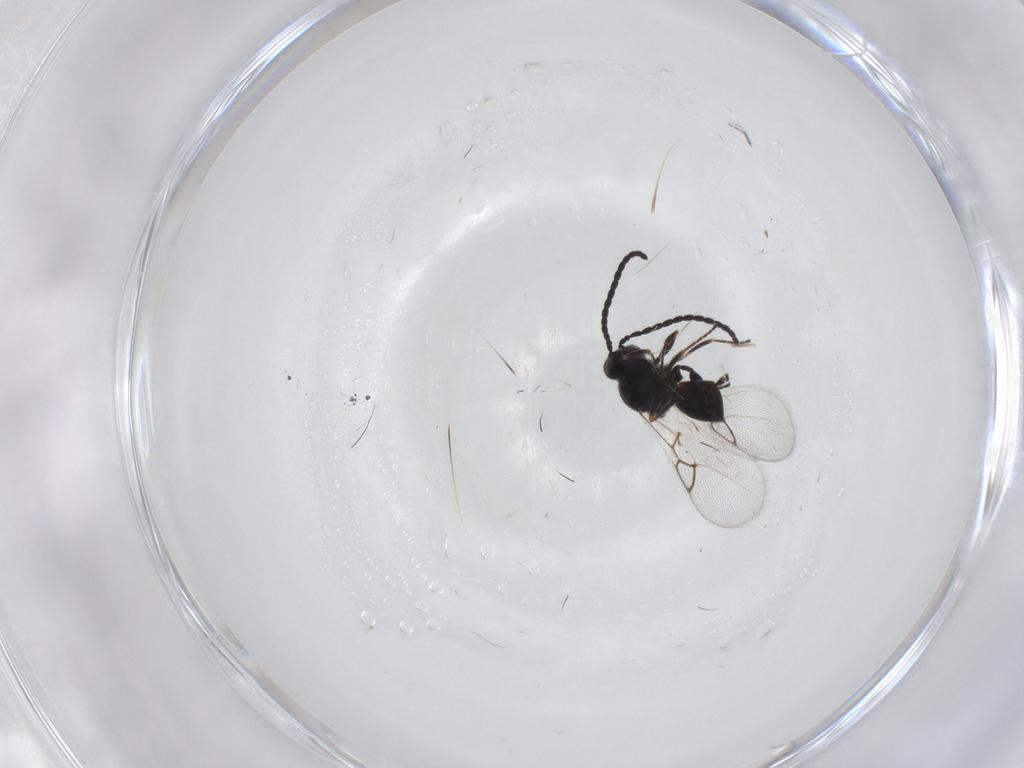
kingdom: Animalia
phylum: Arthropoda
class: Insecta
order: Hymenoptera
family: Figitidae
